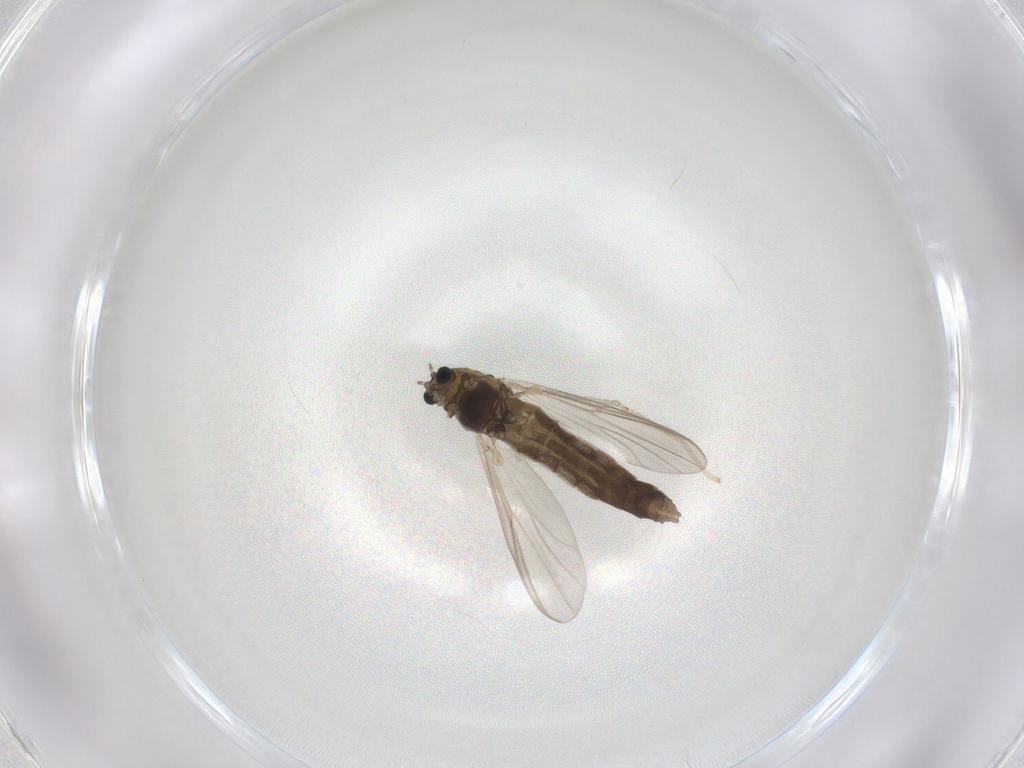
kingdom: Animalia
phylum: Arthropoda
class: Insecta
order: Diptera
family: Chironomidae
